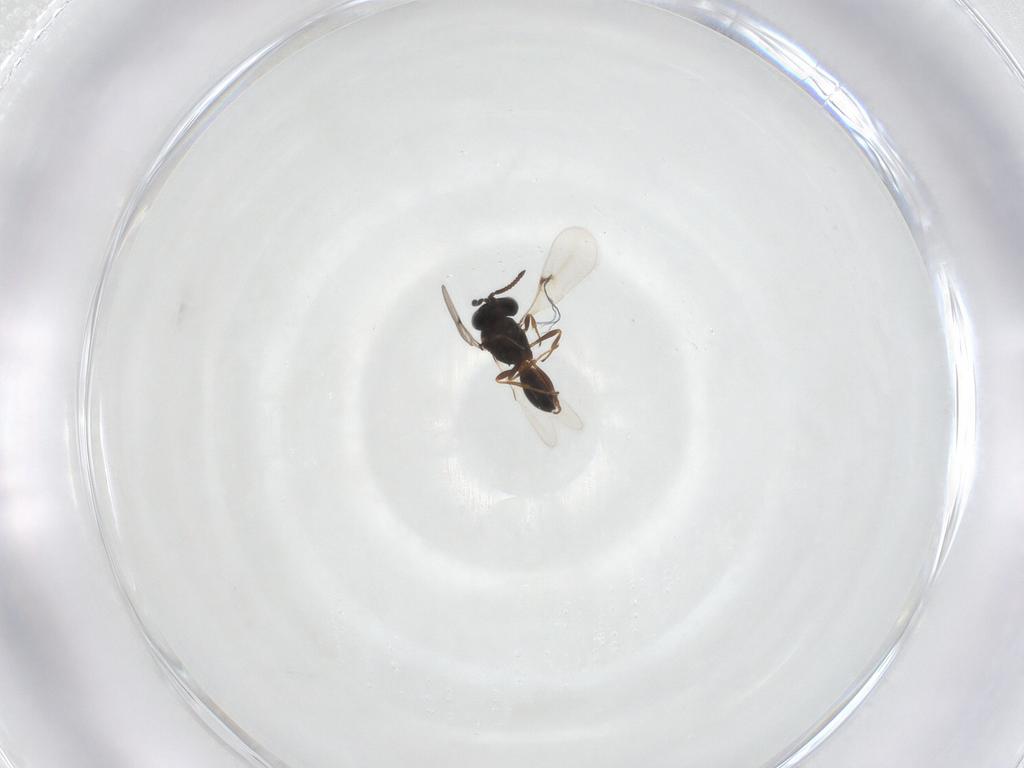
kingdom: Animalia
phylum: Arthropoda
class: Arachnida
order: Araneae
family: Pholcidae
